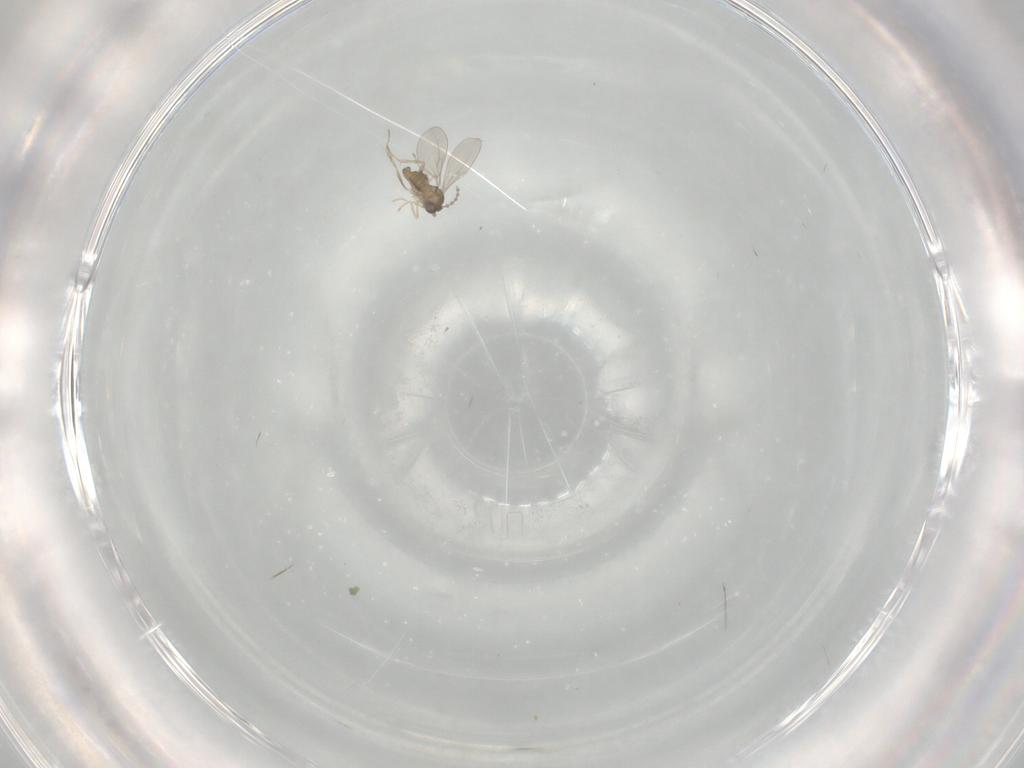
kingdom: Animalia
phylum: Arthropoda
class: Insecta
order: Diptera
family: Cecidomyiidae
